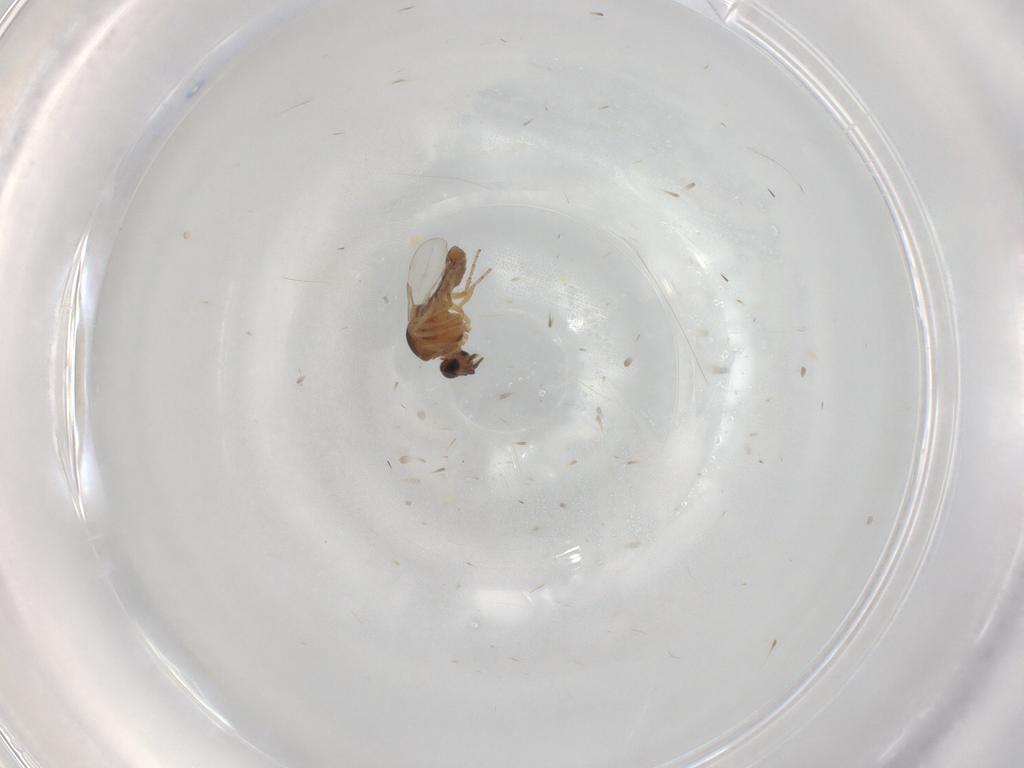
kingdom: Animalia
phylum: Arthropoda
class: Insecta
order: Diptera
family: Ceratopogonidae
